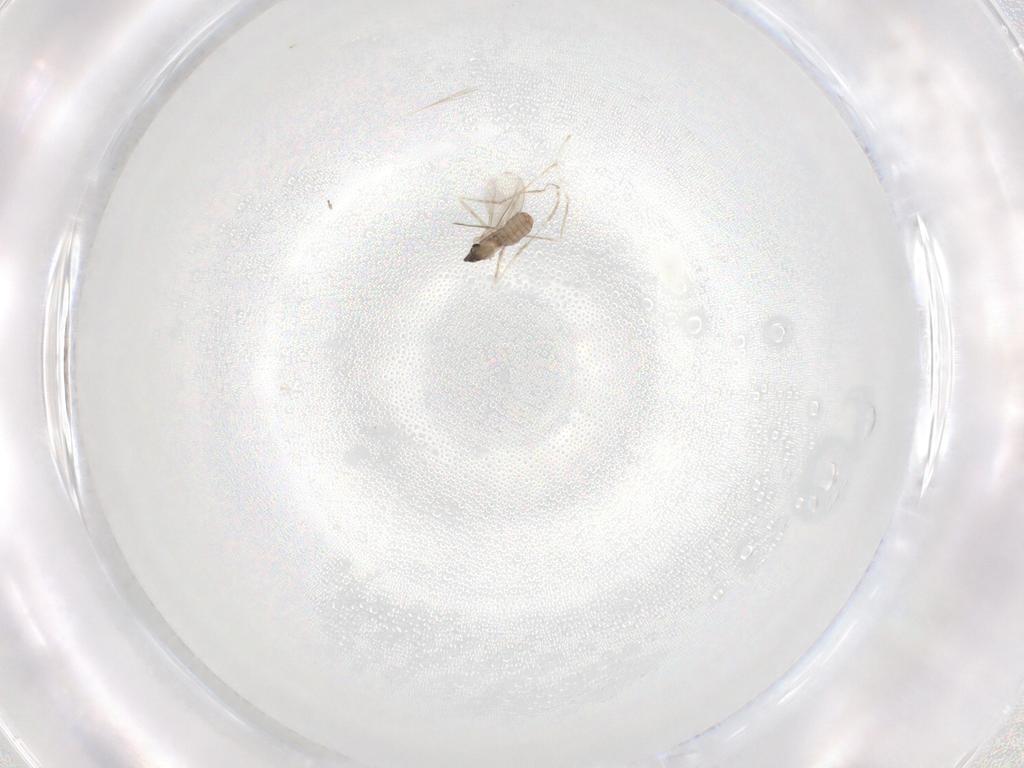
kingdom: Animalia
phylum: Arthropoda
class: Insecta
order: Diptera
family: Cecidomyiidae
